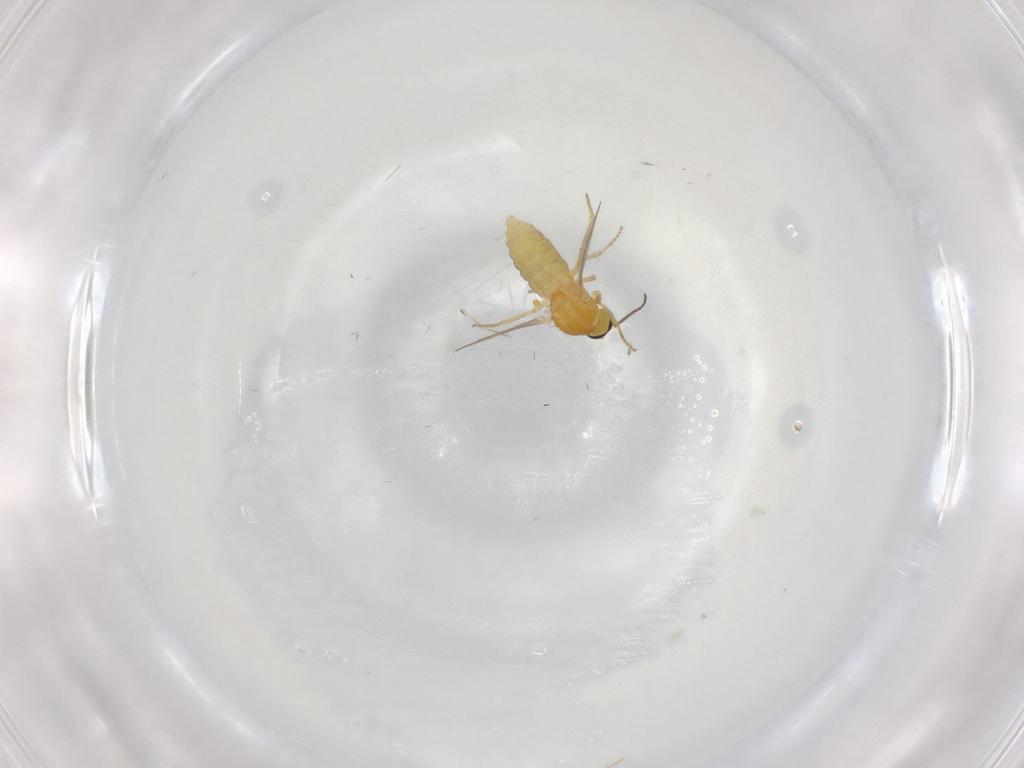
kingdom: Animalia
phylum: Arthropoda
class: Insecta
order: Diptera
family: Ceratopogonidae
